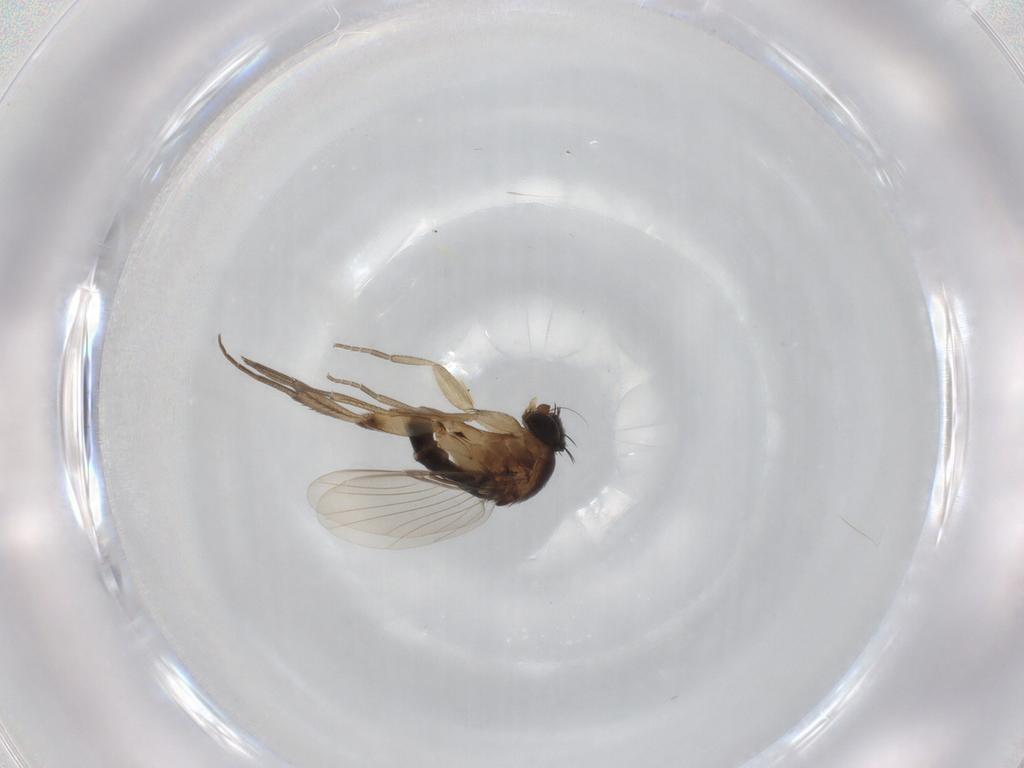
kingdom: Animalia
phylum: Arthropoda
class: Insecta
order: Diptera
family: Phoridae
